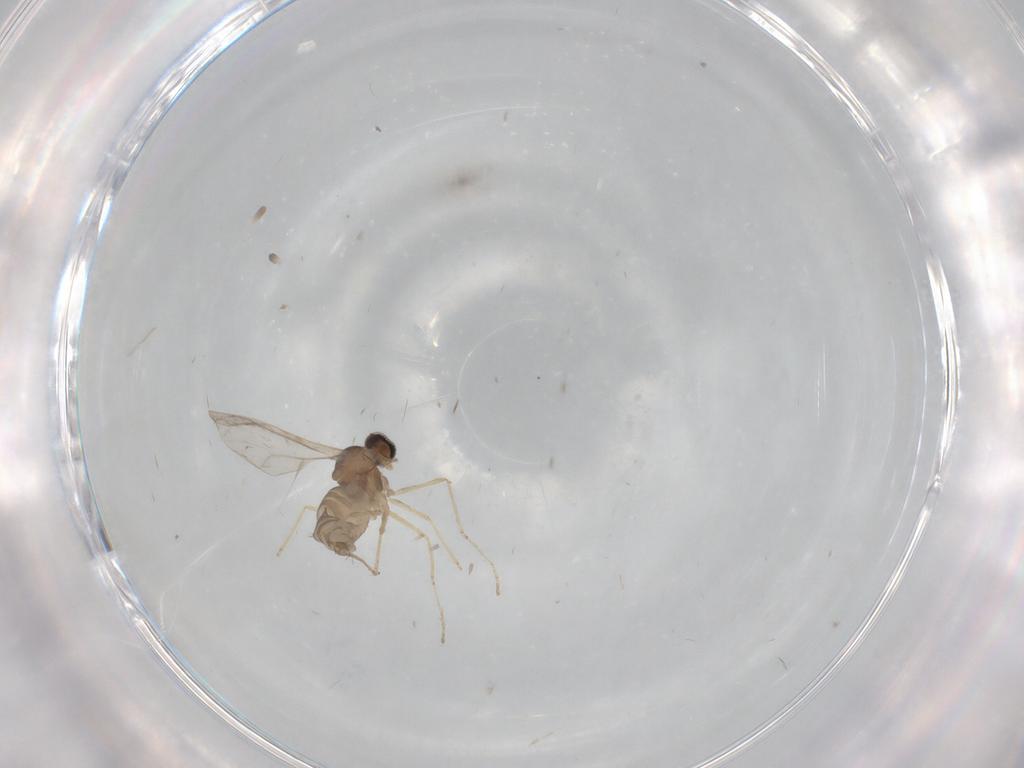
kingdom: Animalia
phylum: Arthropoda
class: Insecta
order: Diptera
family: Cecidomyiidae
